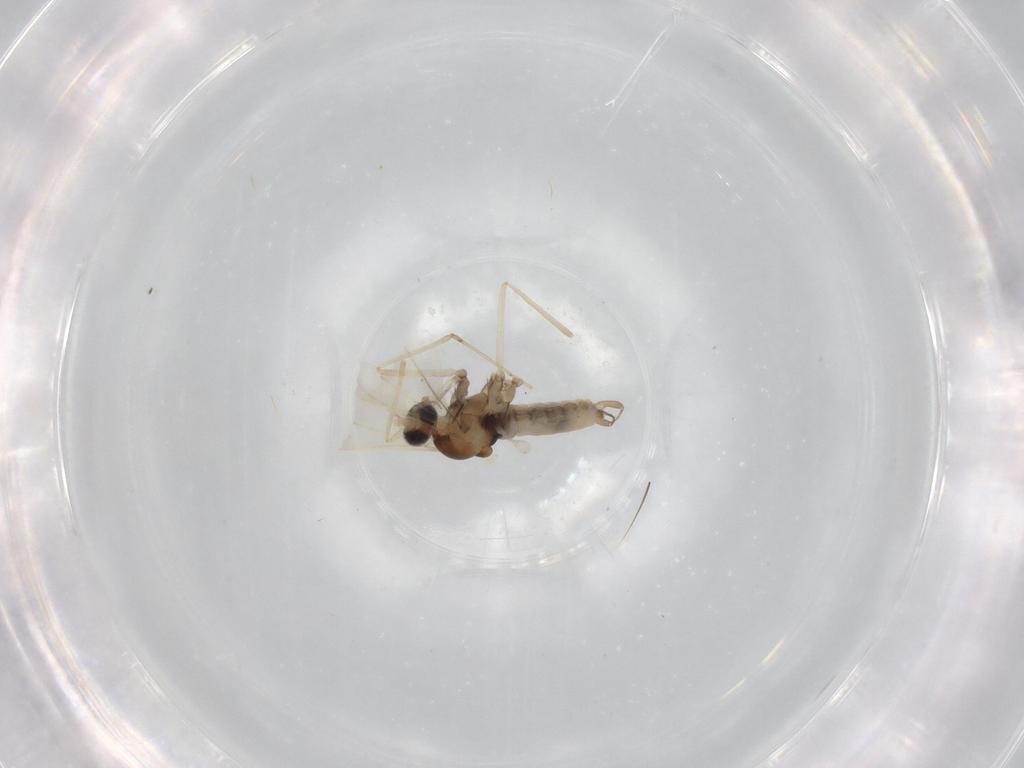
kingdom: Animalia
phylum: Arthropoda
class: Insecta
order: Diptera
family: Cecidomyiidae
